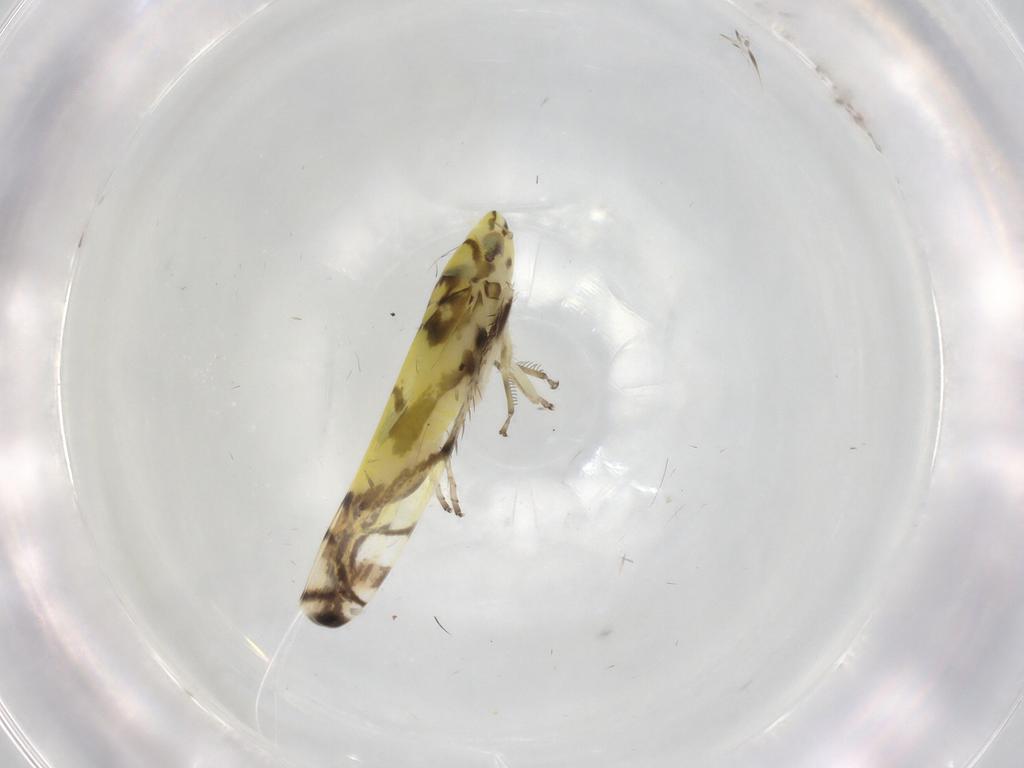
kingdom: Animalia
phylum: Arthropoda
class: Insecta
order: Hemiptera
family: Cicadellidae
